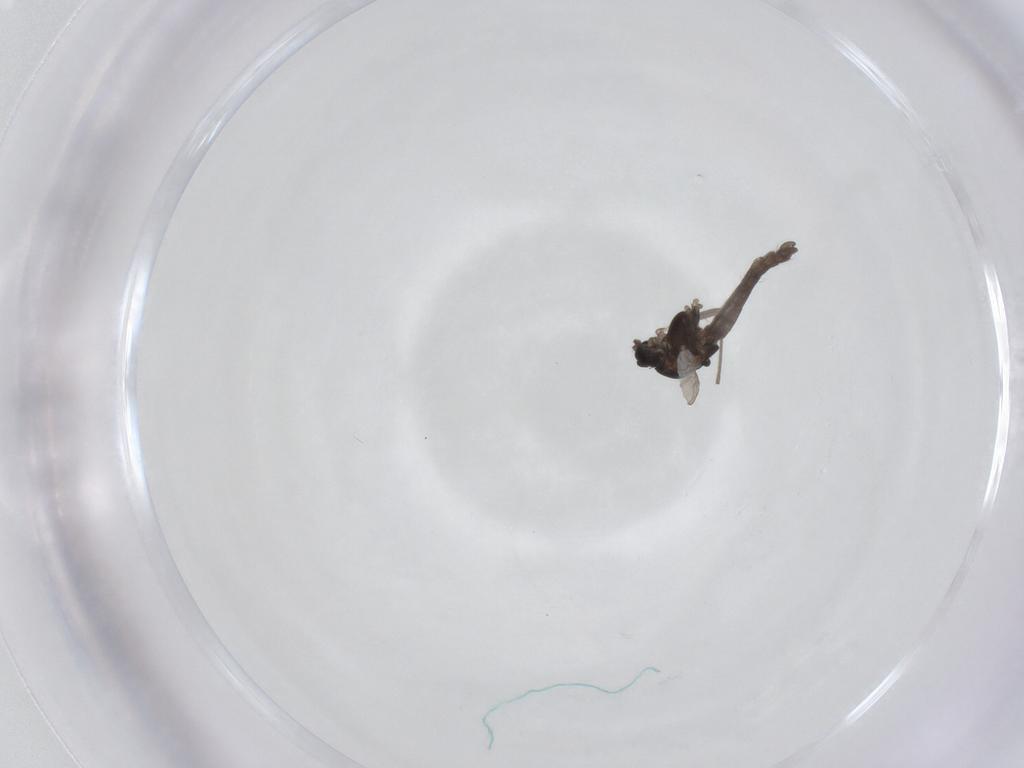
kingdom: Animalia
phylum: Arthropoda
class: Insecta
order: Diptera
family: Chironomidae
